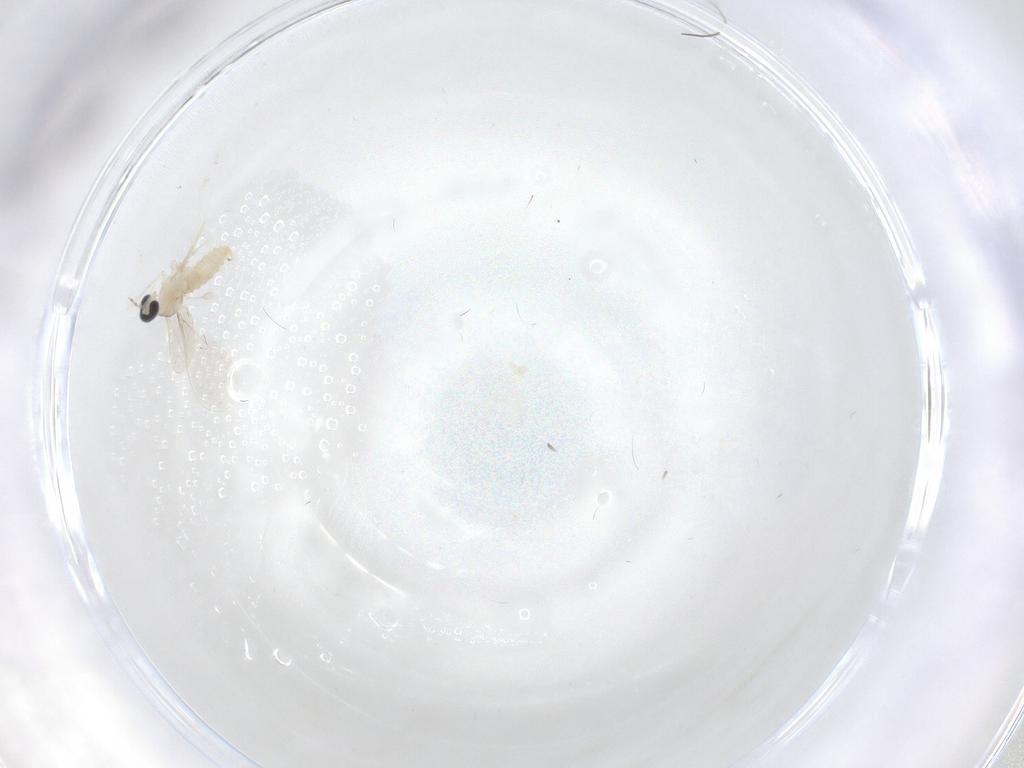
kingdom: Animalia
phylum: Arthropoda
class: Insecta
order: Diptera
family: Cecidomyiidae
